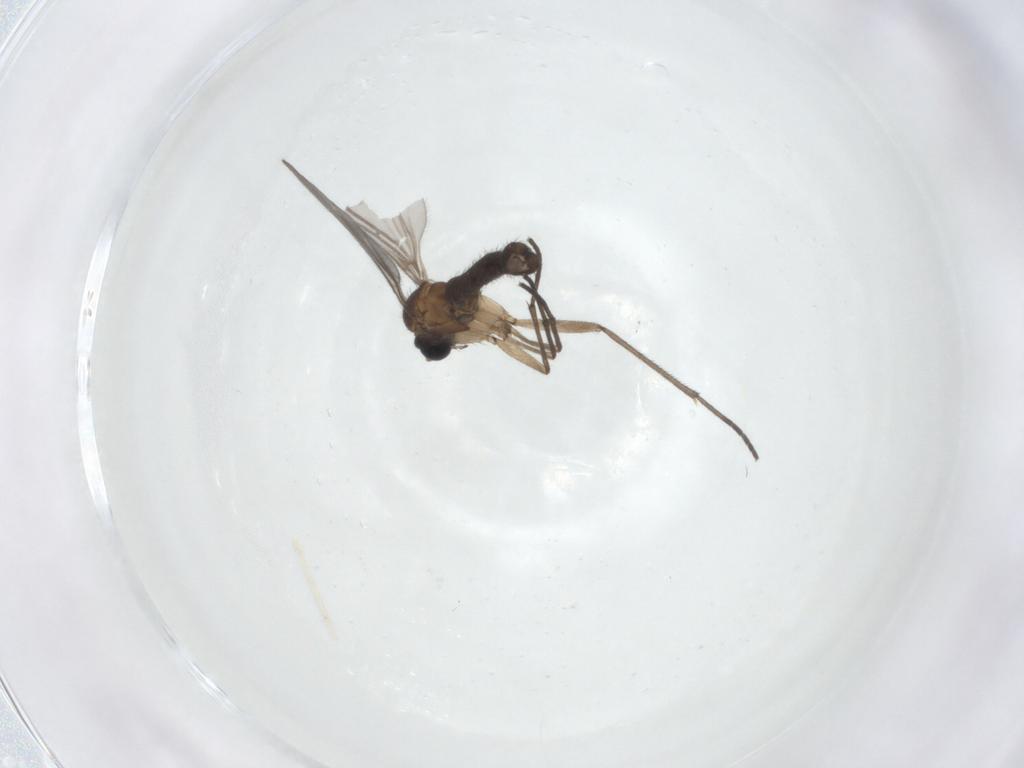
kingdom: Animalia
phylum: Arthropoda
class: Insecta
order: Diptera
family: Sciaridae
